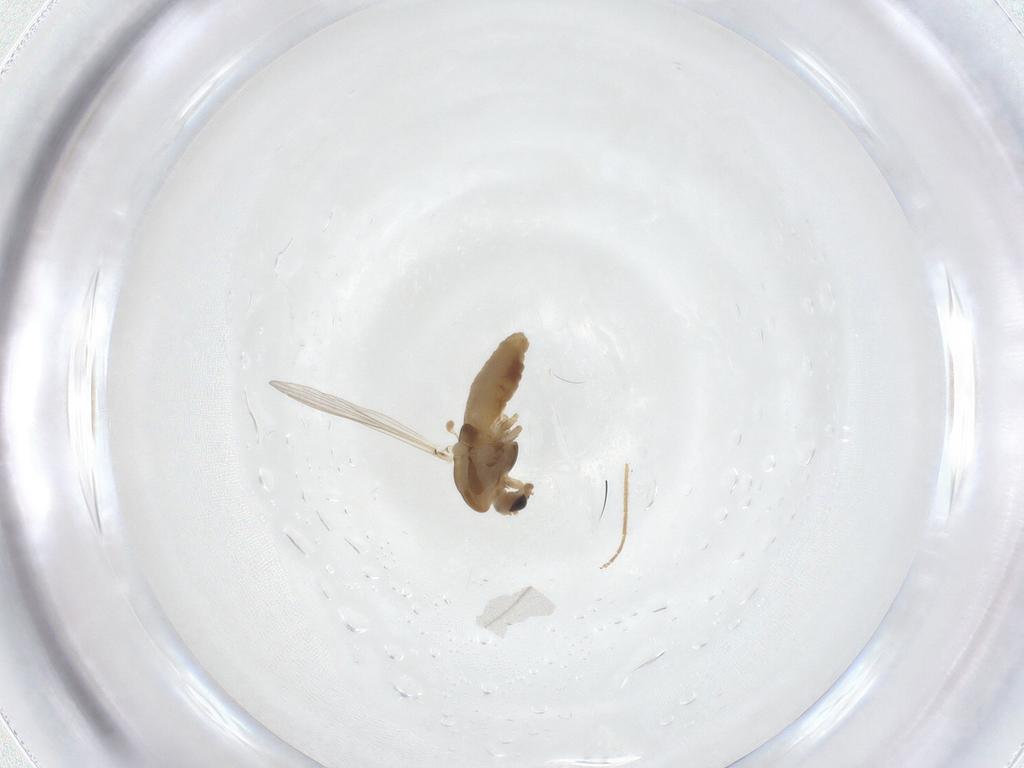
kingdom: Animalia
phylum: Arthropoda
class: Insecta
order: Diptera
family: Chironomidae
